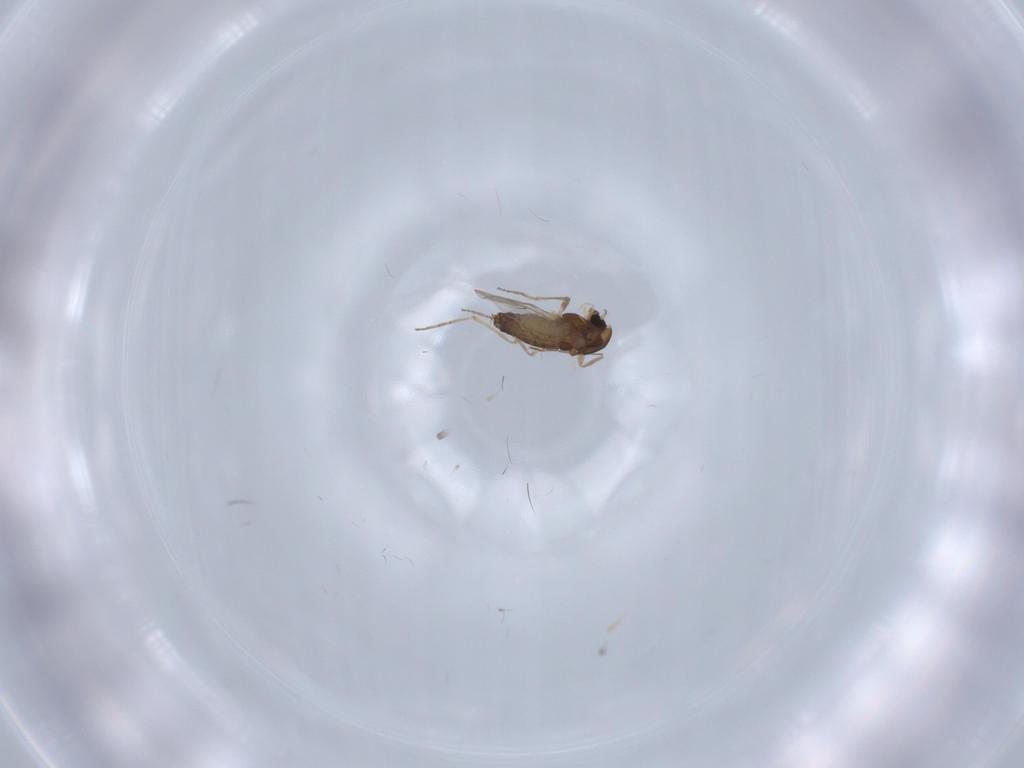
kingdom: Animalia
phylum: Arthropoda
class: Insecta
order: Diptera
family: Chironomidae
